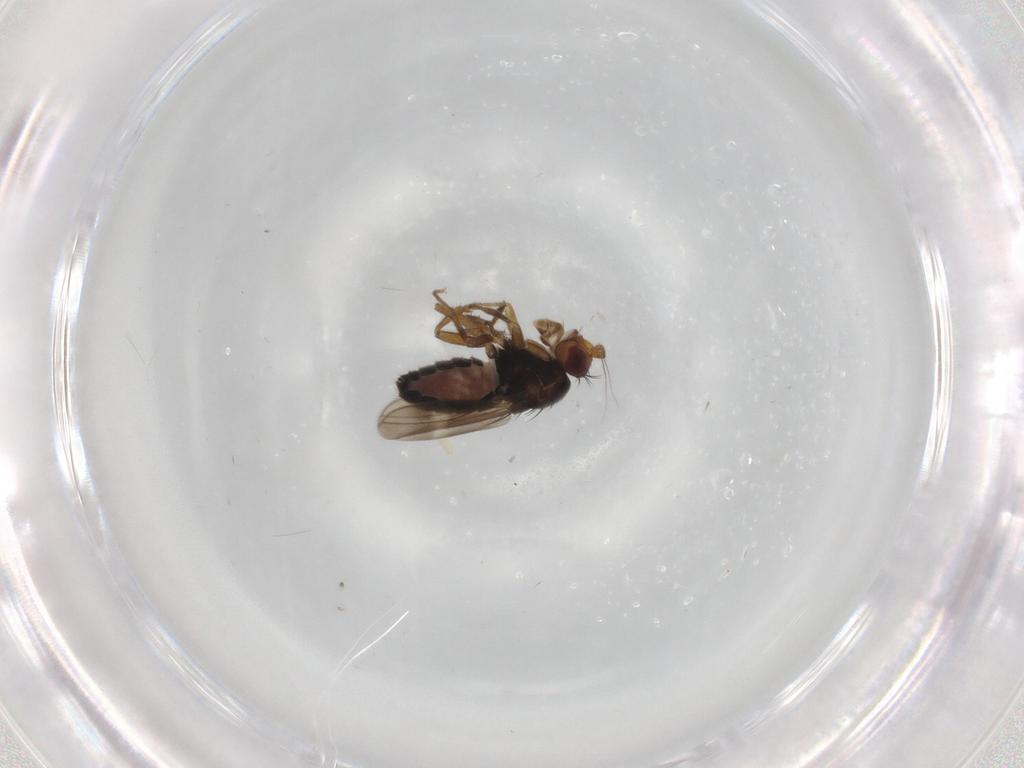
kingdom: Animalia
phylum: Arthropoda
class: Insecta
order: Diptera
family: Sphaeroceridae
